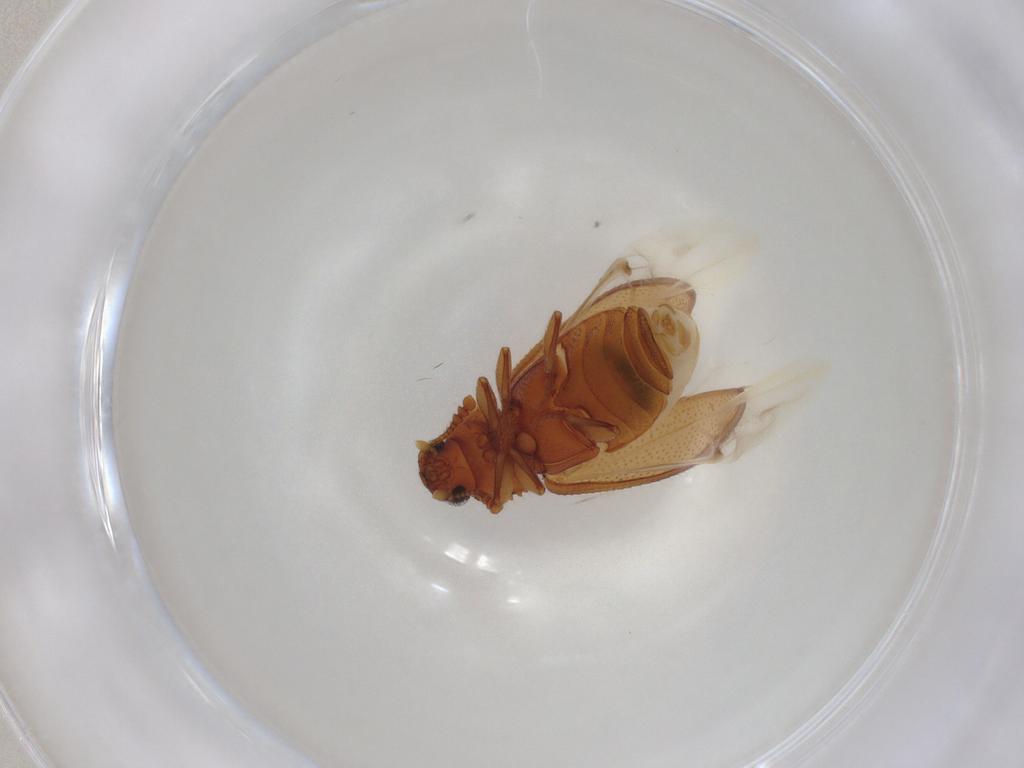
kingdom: Animalia
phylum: Arthropoda
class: Insecta
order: Coleoptera
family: Tenebrionidae
